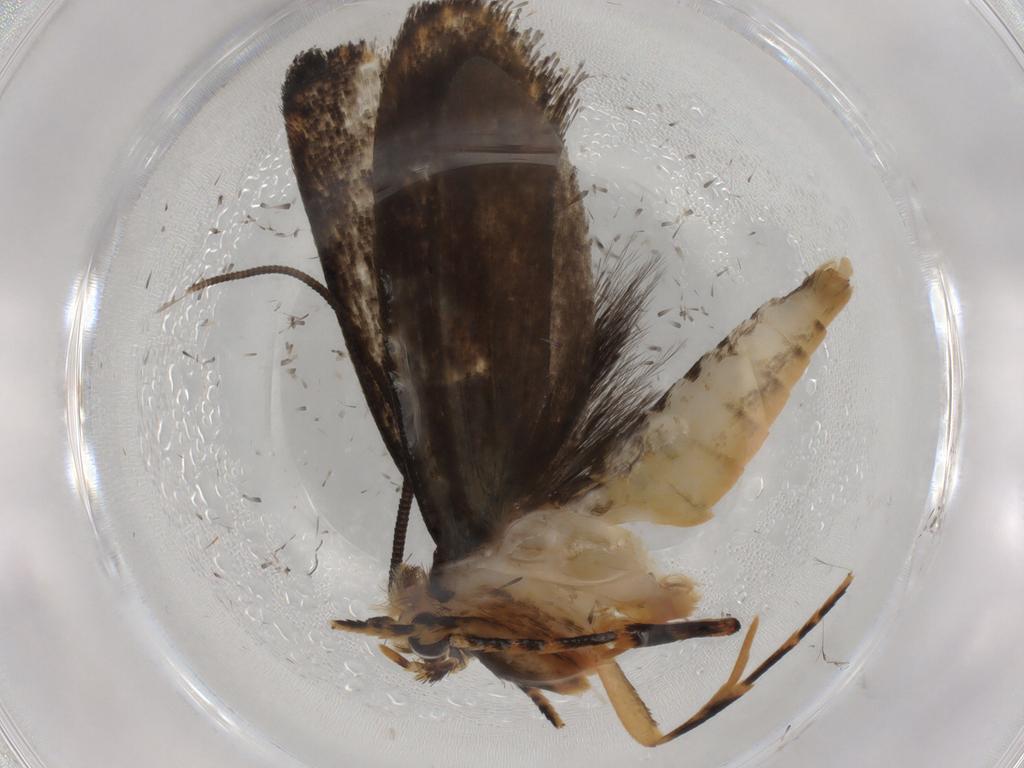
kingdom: Animalia
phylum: Arthropoda
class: Insecta
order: Lepidoptera
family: Tineidae
